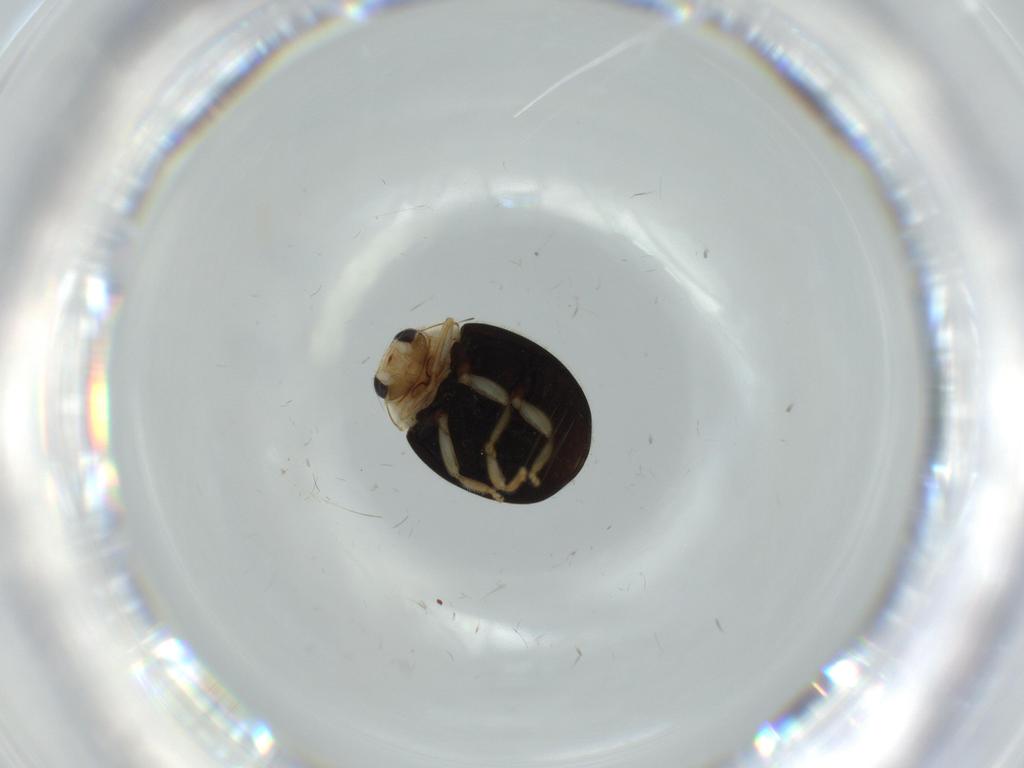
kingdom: Animalia
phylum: Arthropoda
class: Insecta
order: Coleoptera
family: Coccinellidae
